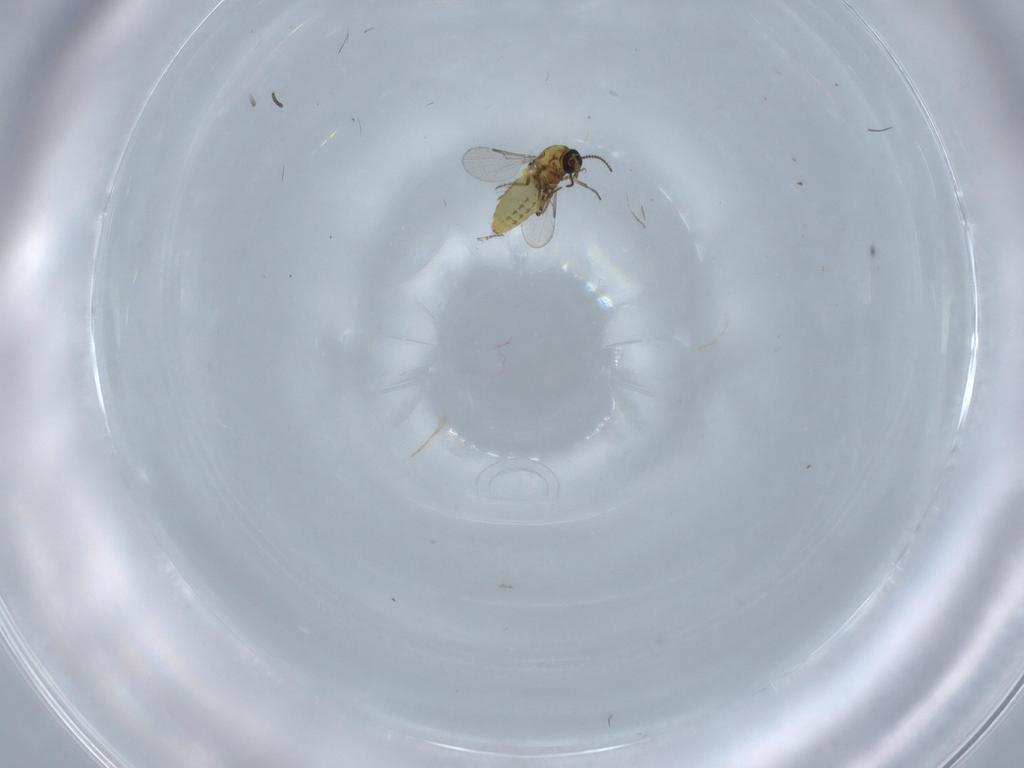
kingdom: Animalia
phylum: Arthropoda
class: Insecta
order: Diptera
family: Ceratopogonidae
